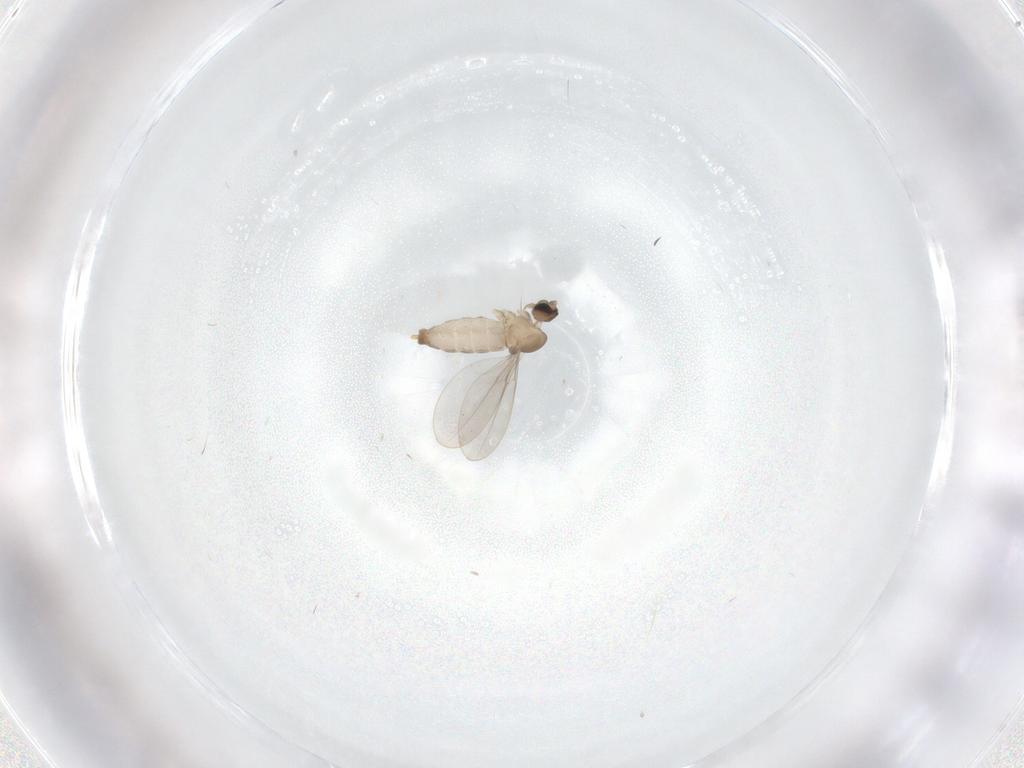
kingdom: Animalia
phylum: Arthropoda
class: Insecta
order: Diptera
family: Cecidomyiidae
